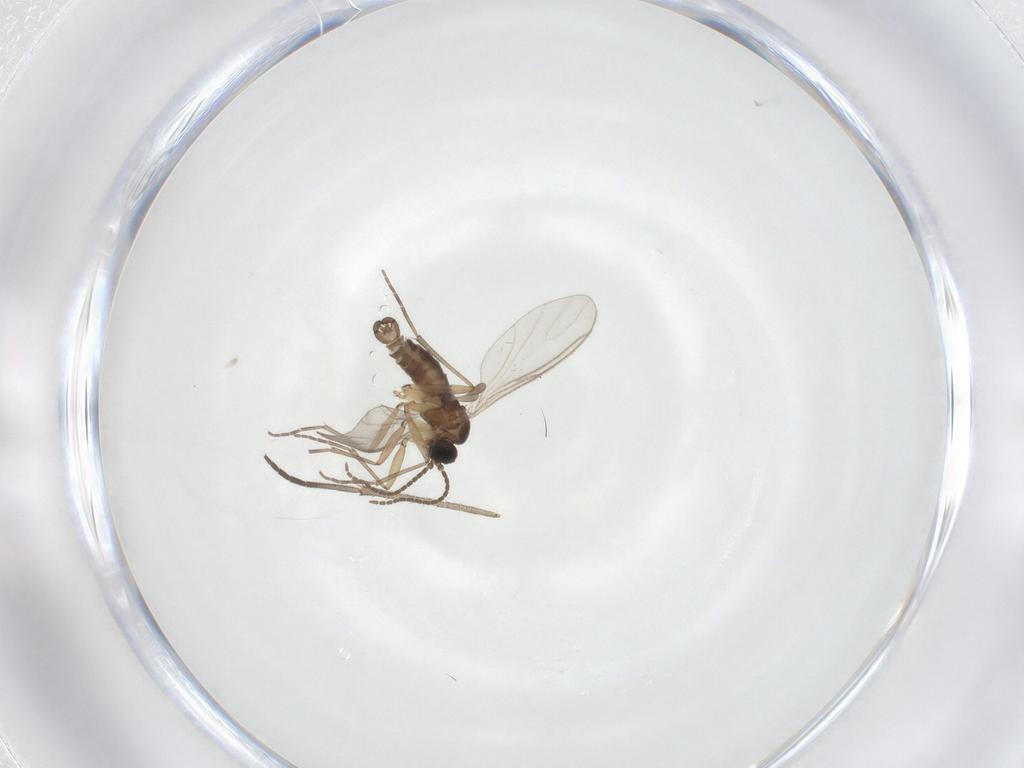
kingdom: Animalia
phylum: Arthropoda
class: Insecta
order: Diptera
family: Sciaridae
